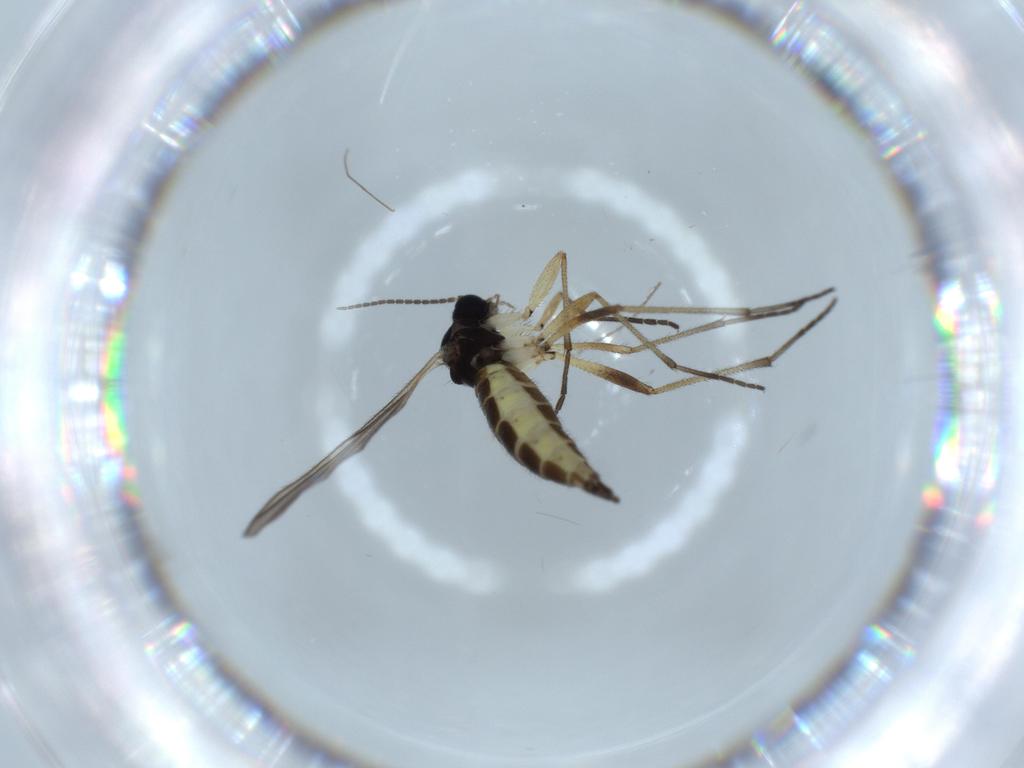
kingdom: Animalia
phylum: Arthropoda
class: Insecta
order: Diptera
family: Sciaridae
